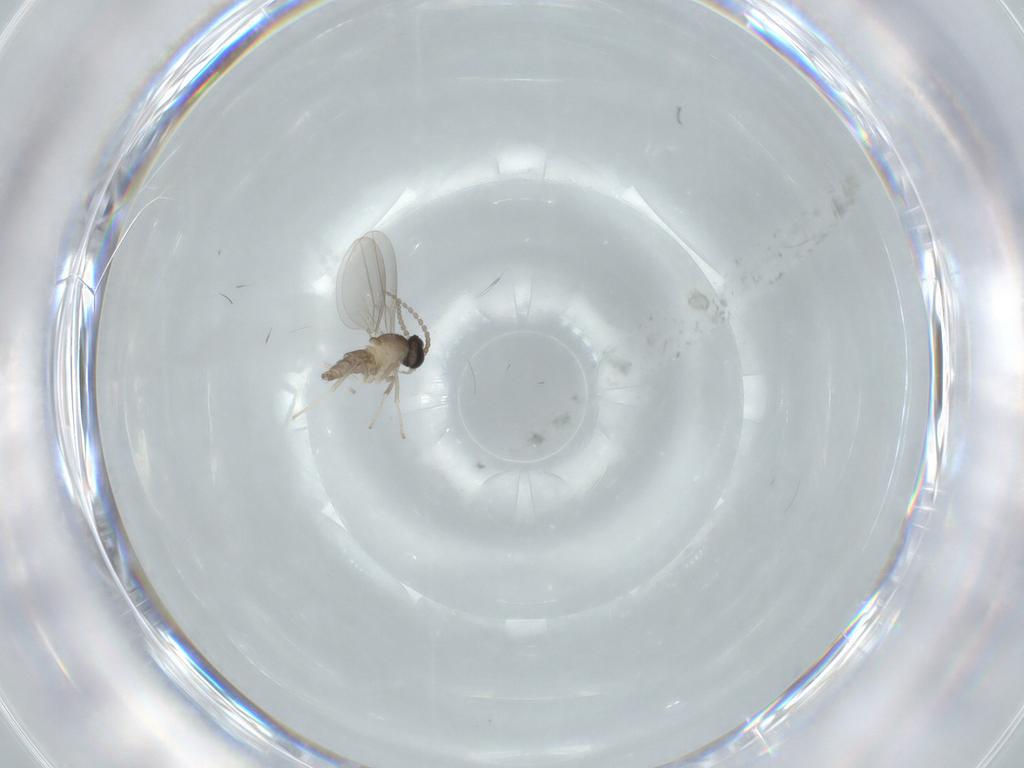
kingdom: Animalia
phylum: Arthropoda
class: Insecta
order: Diptera
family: Cecidomyiidae
